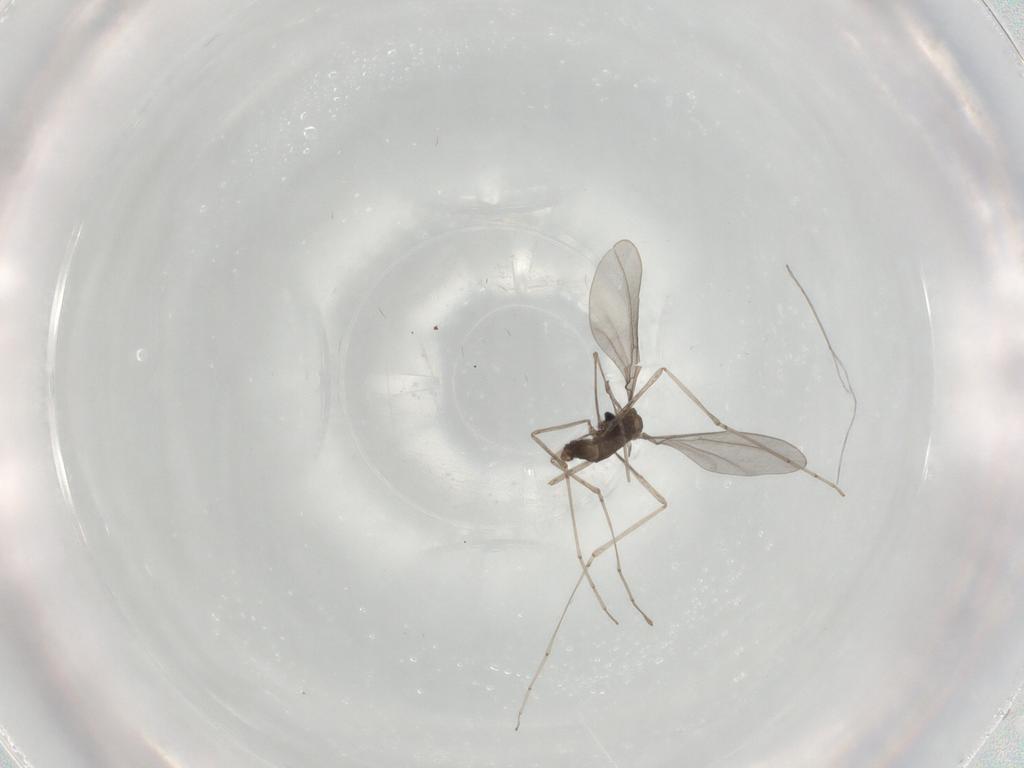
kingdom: Animalia
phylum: Arthropoda
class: Insecta
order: Diptera
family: Cecidomyiidae
